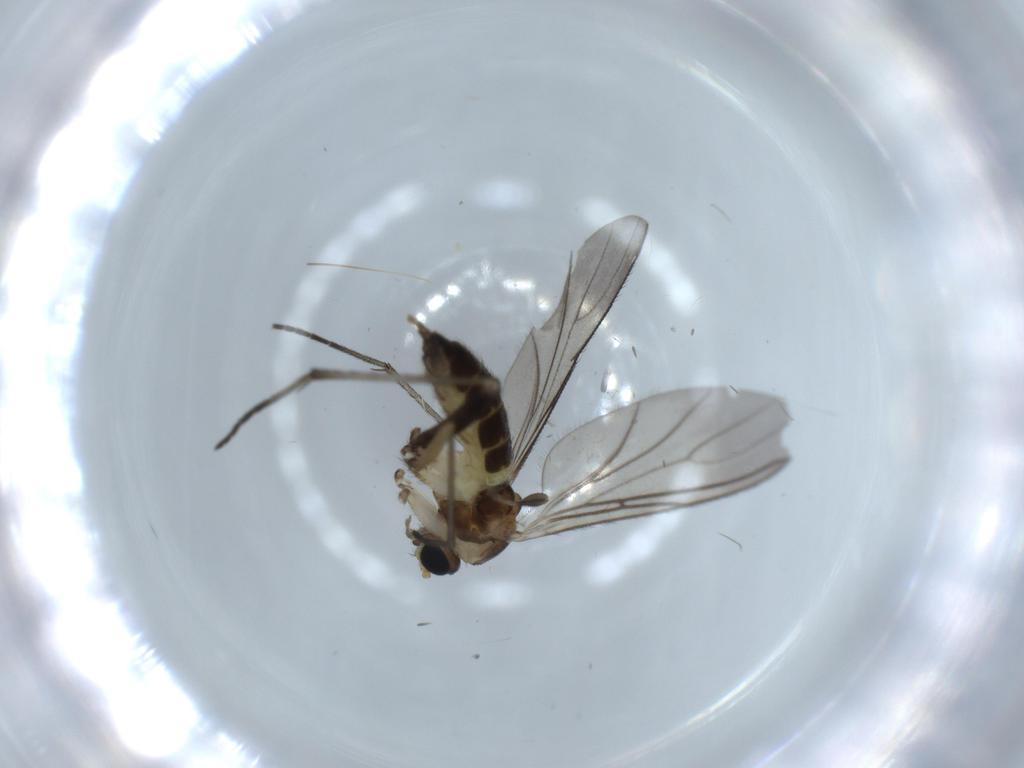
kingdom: Animalia
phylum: Arthropoda
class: Insecta
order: Diptera
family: Sciaridae
